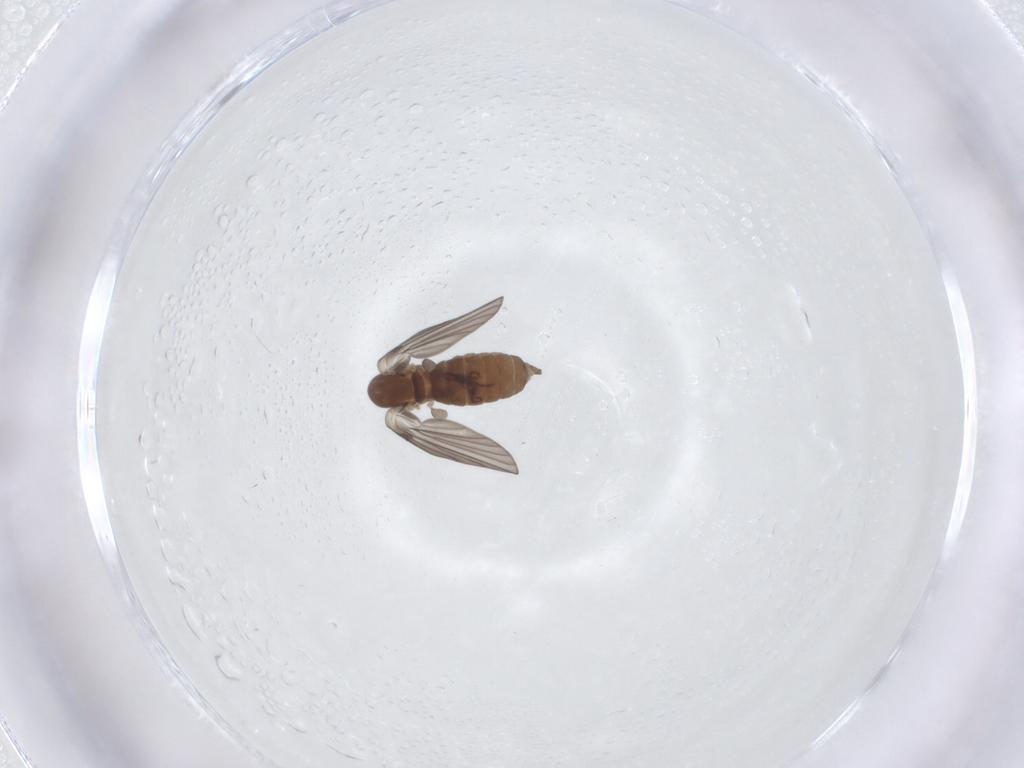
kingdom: Animalia
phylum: Arthropoda
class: Insecta
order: Diptera
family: Psychodidae
